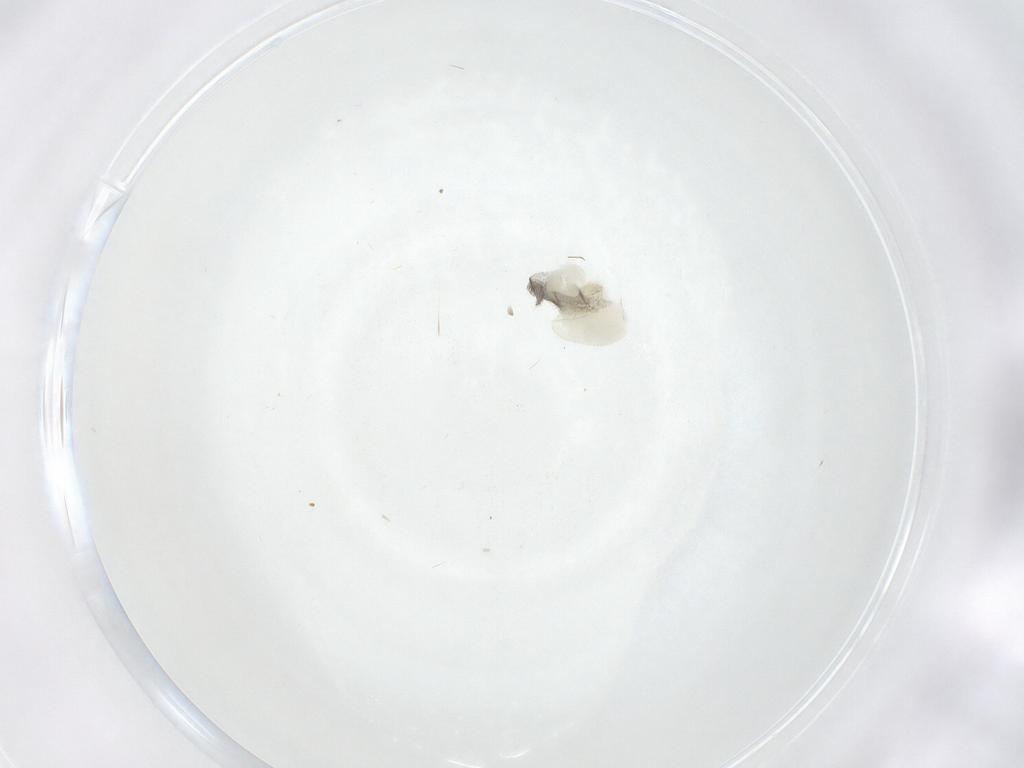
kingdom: Animalia
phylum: Arthropoda
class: Insecta
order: Coleoptera
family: Cantharidae
